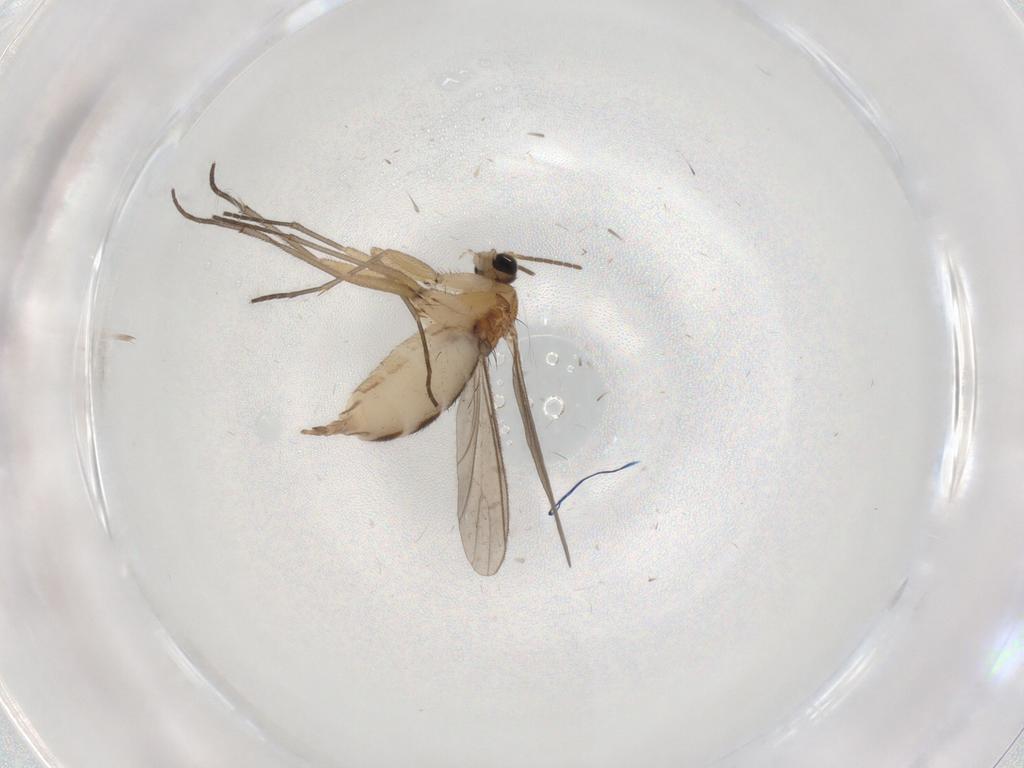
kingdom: Animalia
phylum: Arthropoda
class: Insecta
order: Diptera
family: Sciaridae
